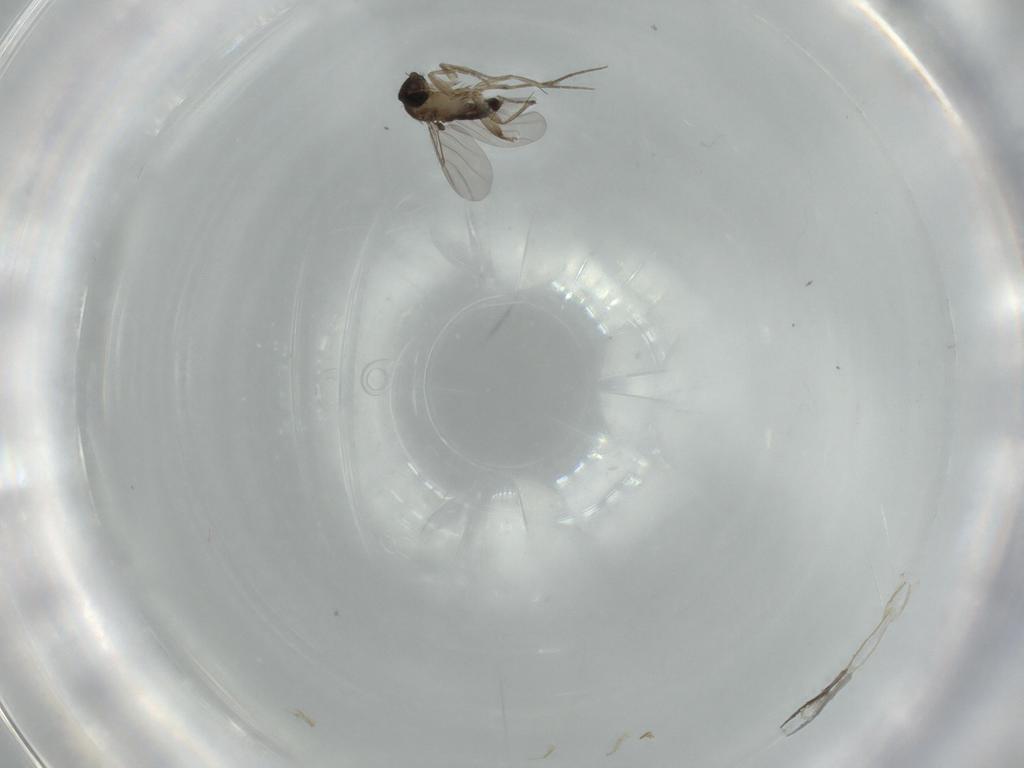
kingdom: Animalia
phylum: Arthropoda
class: Insecta
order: Diptera
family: Phoridae
